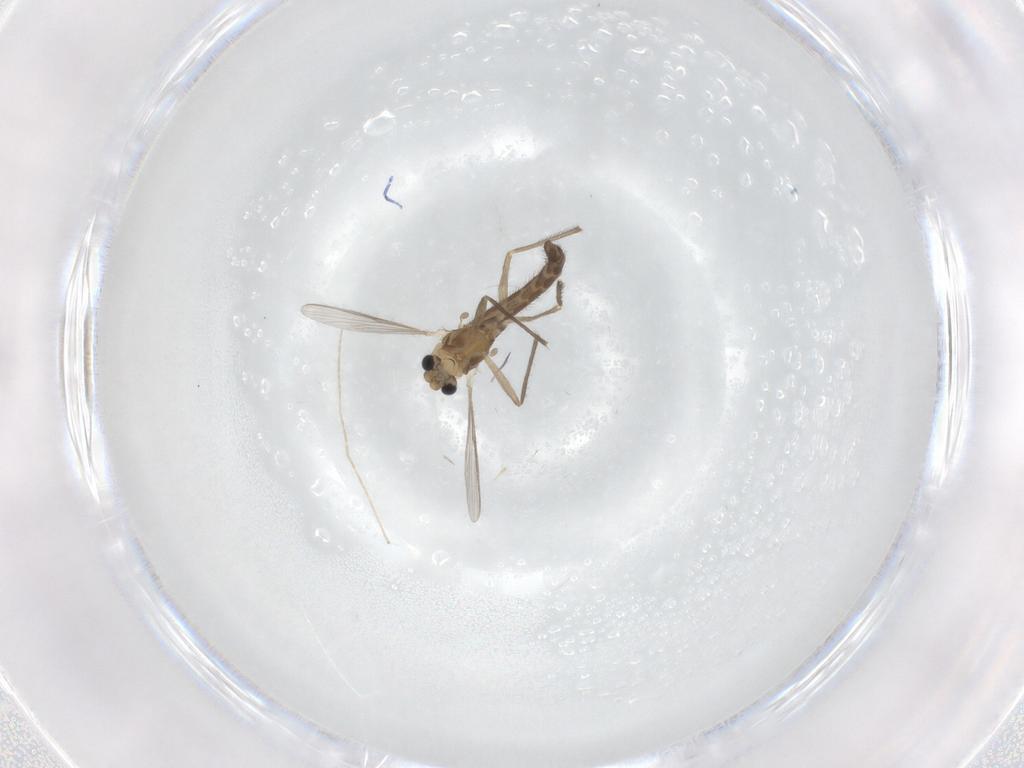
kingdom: Animalia
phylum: Arthropoda
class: Insecta
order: Diptera
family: Chironomidae
